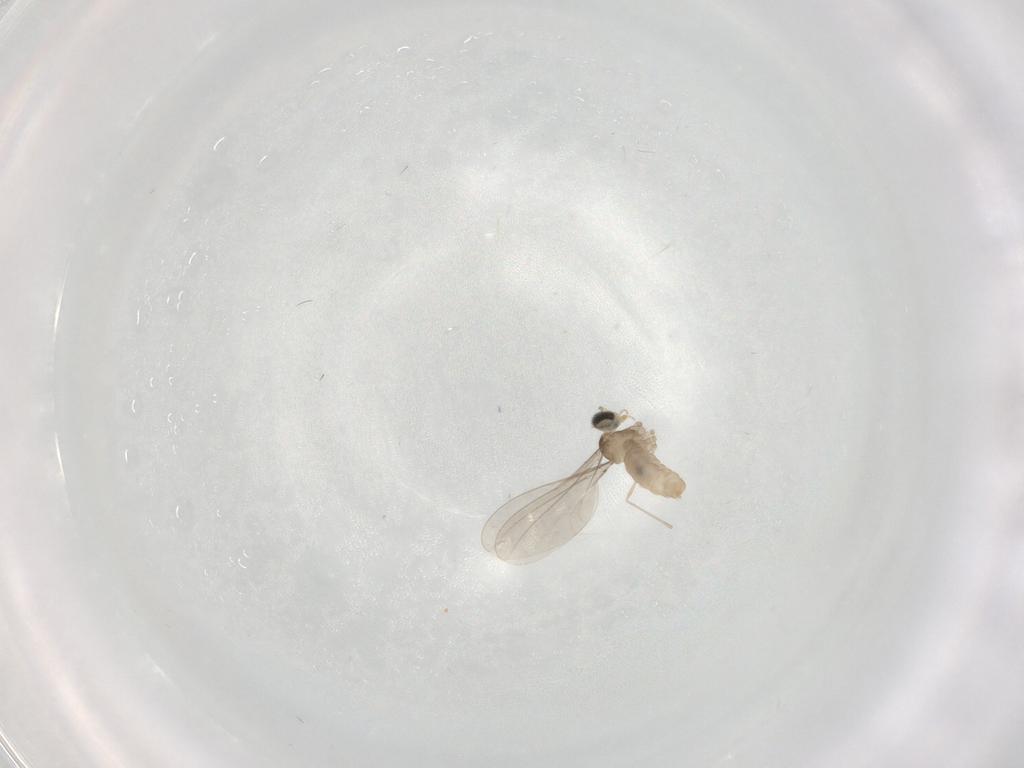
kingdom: Animalia
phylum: Arthropoda
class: Insecta
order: Diptera
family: Cecidomyiidae
